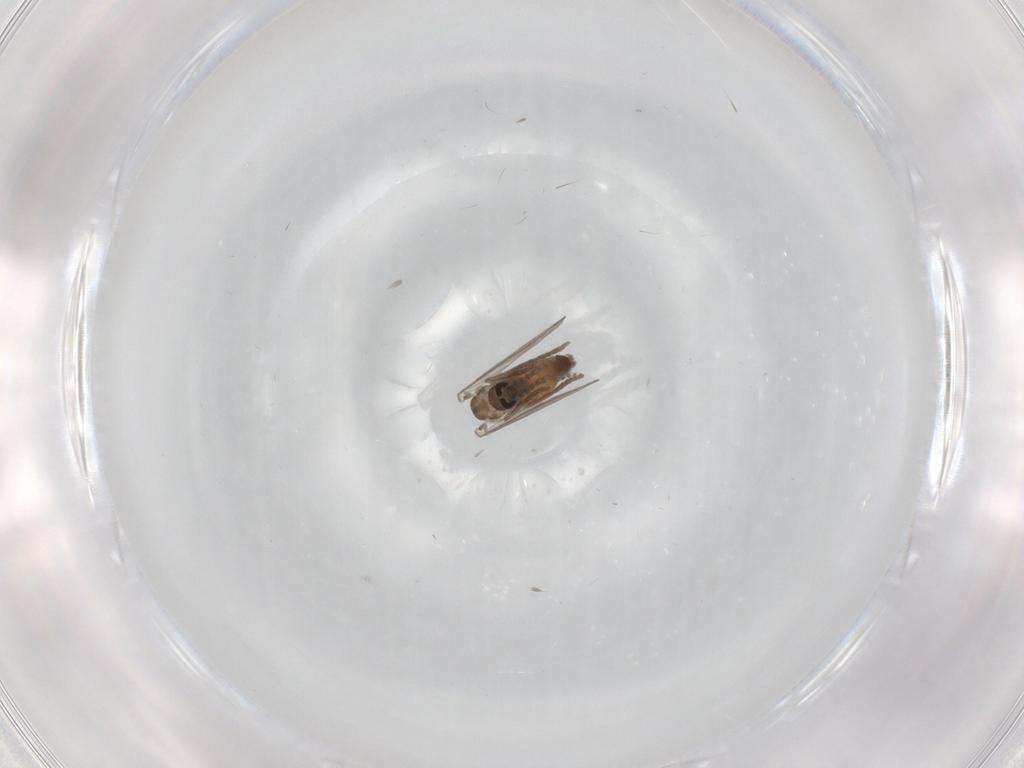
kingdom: Animalia
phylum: Arthropoda
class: Insecta
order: Diptera
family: Psychodidae
